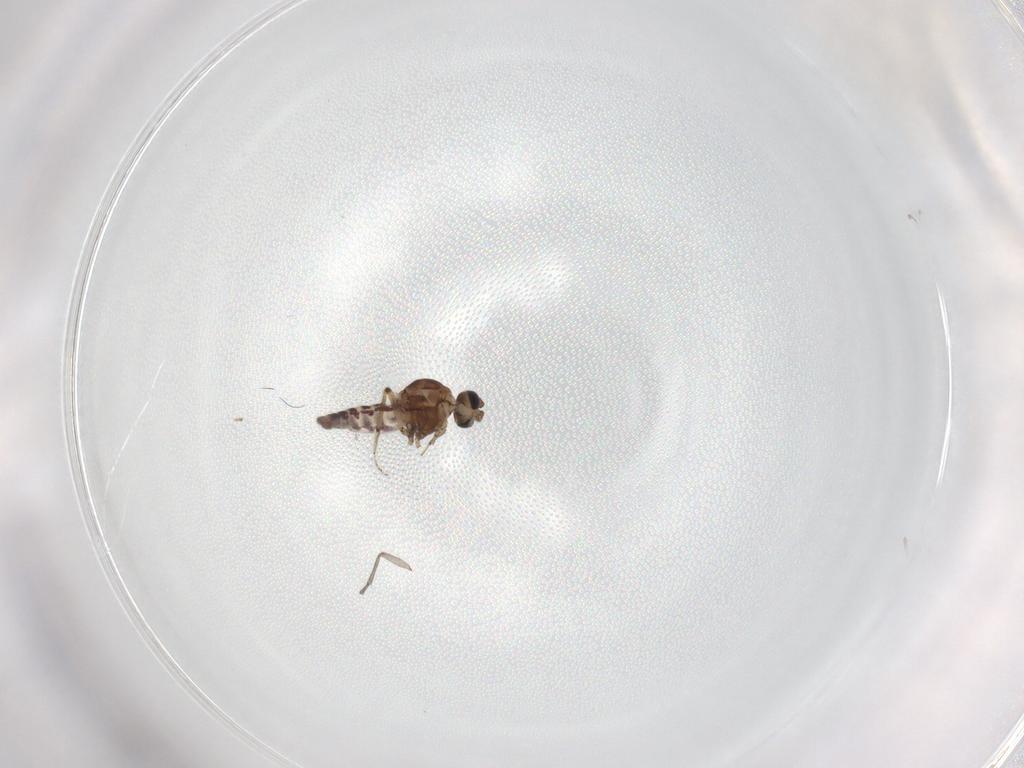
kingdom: Animalia
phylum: Arthropoda
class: Insecta
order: Diptera
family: Ceratopogonidae
